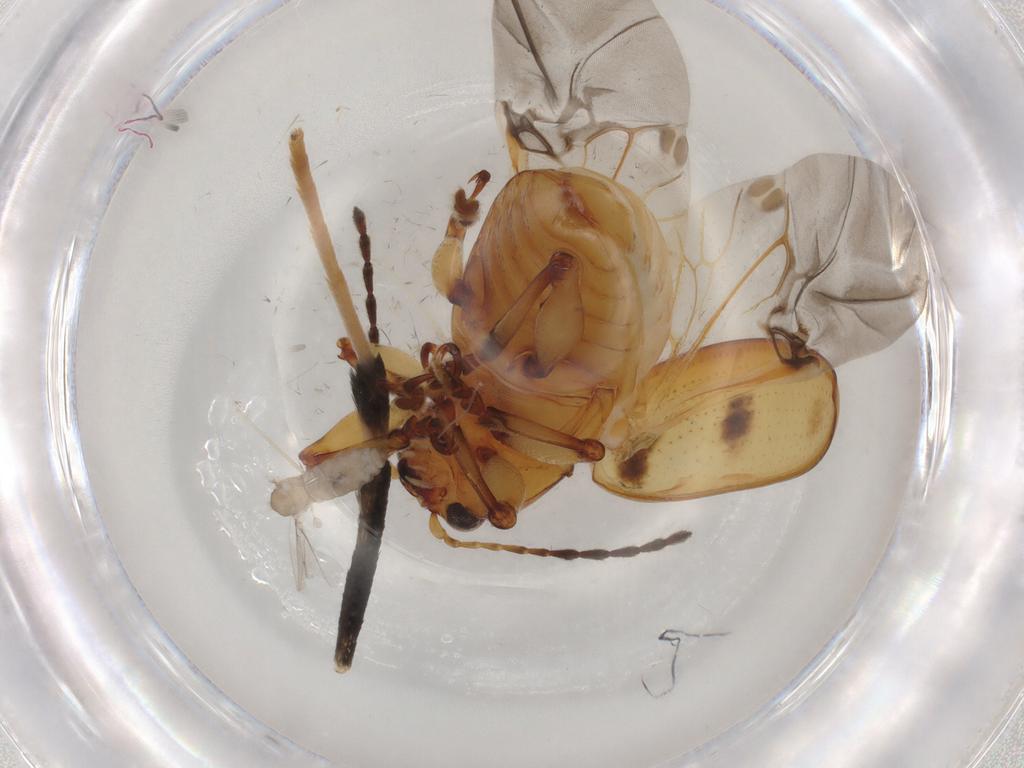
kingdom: Animalia
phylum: Arthropoda
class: Insecta
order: Coleoptera
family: Chrysomelidae
